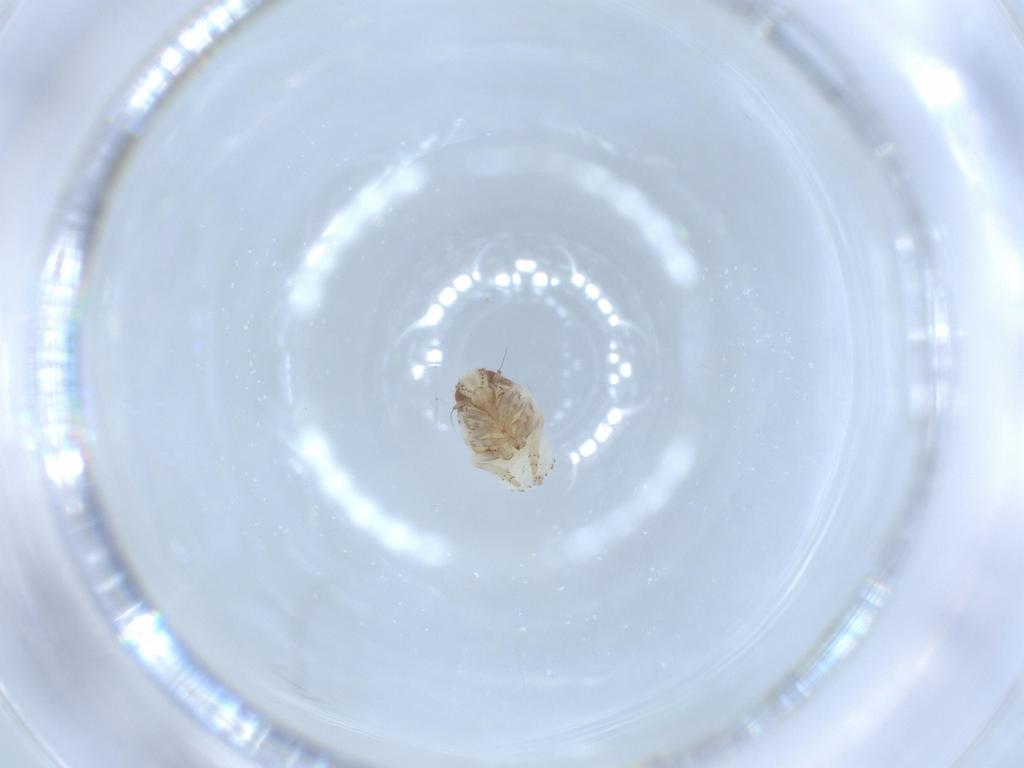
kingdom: Animalia
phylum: Arthropoda
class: Insecta
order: Hemiptera
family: Acanaloniidae
